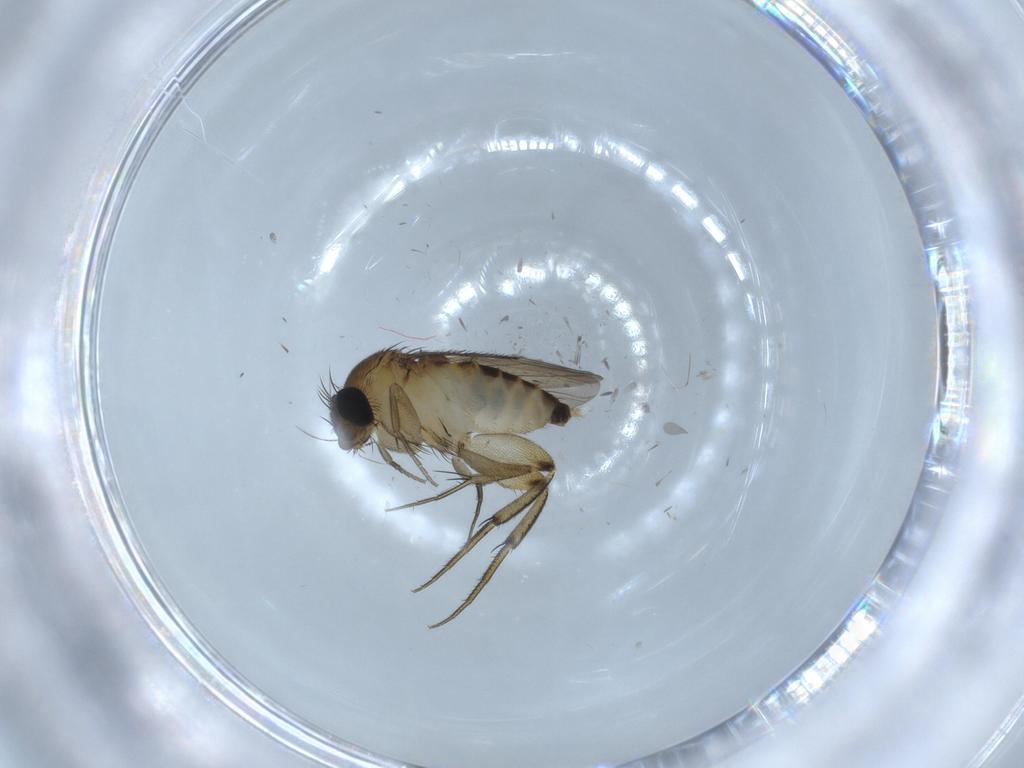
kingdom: Animalia
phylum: Arthropoda
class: Insecta
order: Diptera
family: Phoridae
